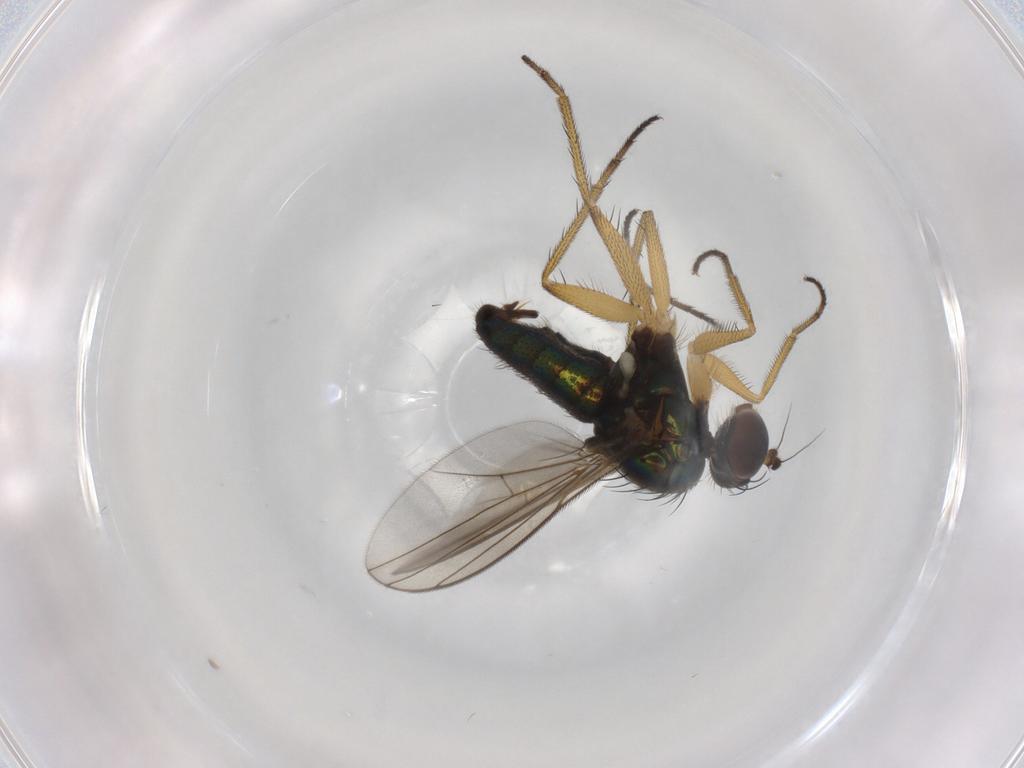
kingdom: Animalia
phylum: Arthropoda
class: Insecta
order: Diptera
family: Dolichopodidae
